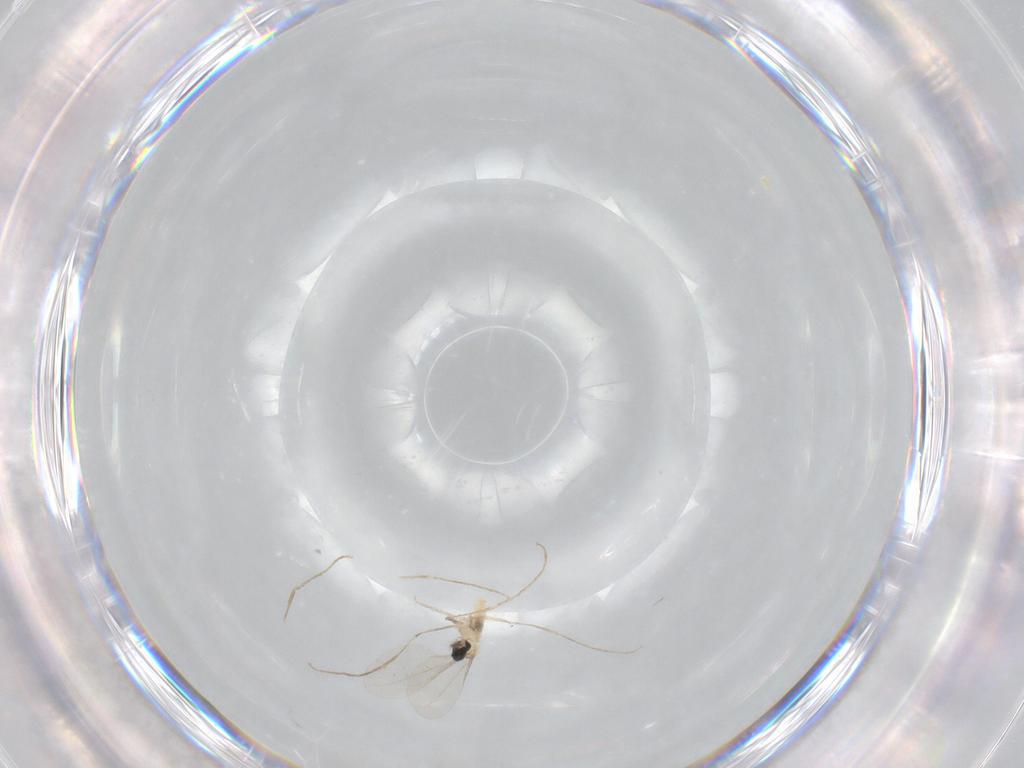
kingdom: Animalia
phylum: Arthropoda
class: Insecta
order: Diptera
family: Cecidomyiidae
